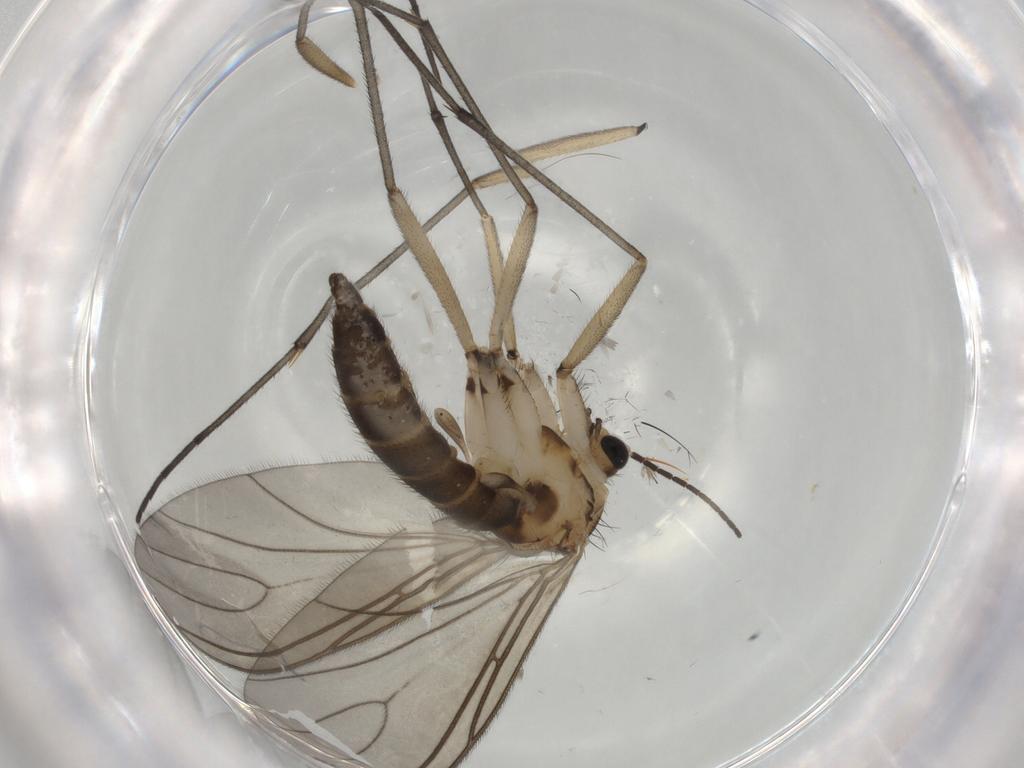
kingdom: Animalia
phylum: Arthropoda
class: Insecta
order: Diptera
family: Sciaridae
